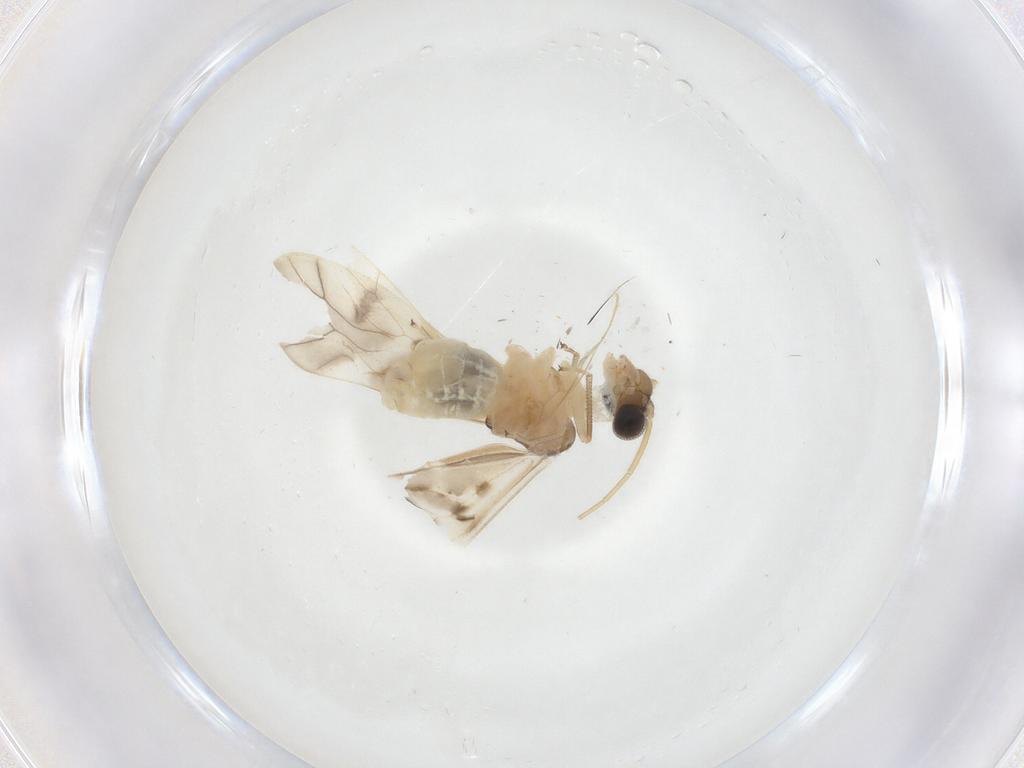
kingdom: Animalia
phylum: Arthropoda
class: Insecta
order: Psocodea
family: Caeciliusidae
